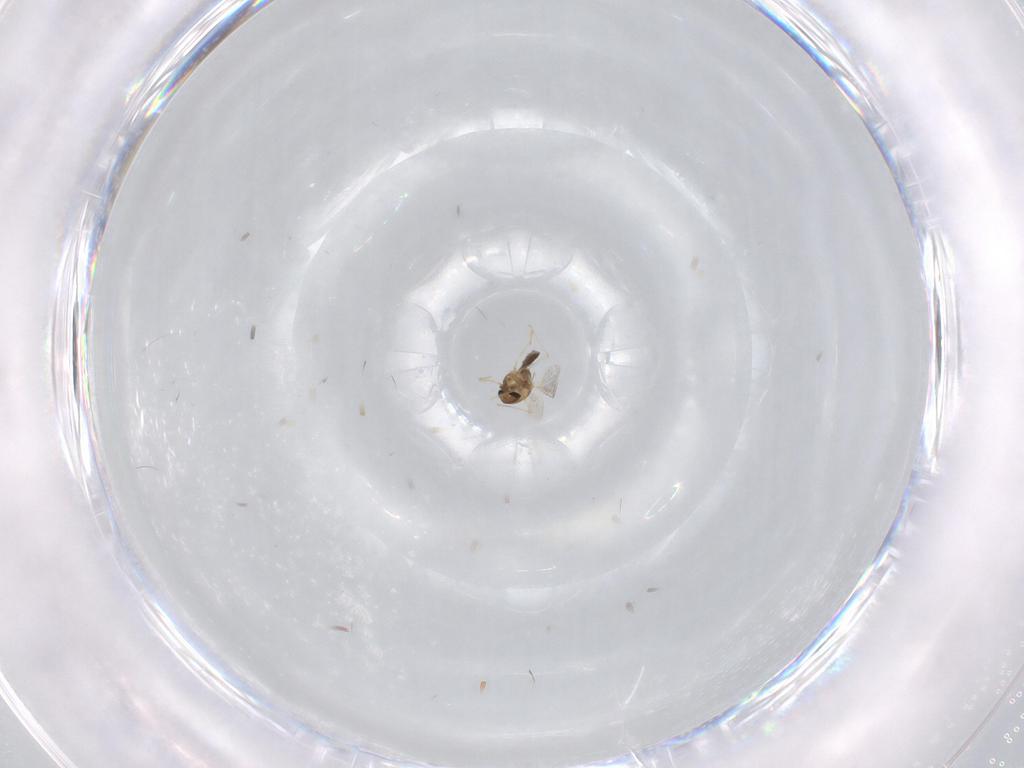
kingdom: Animalia
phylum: Arthropoda
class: Insecta
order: Diptera
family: Chironomidae
